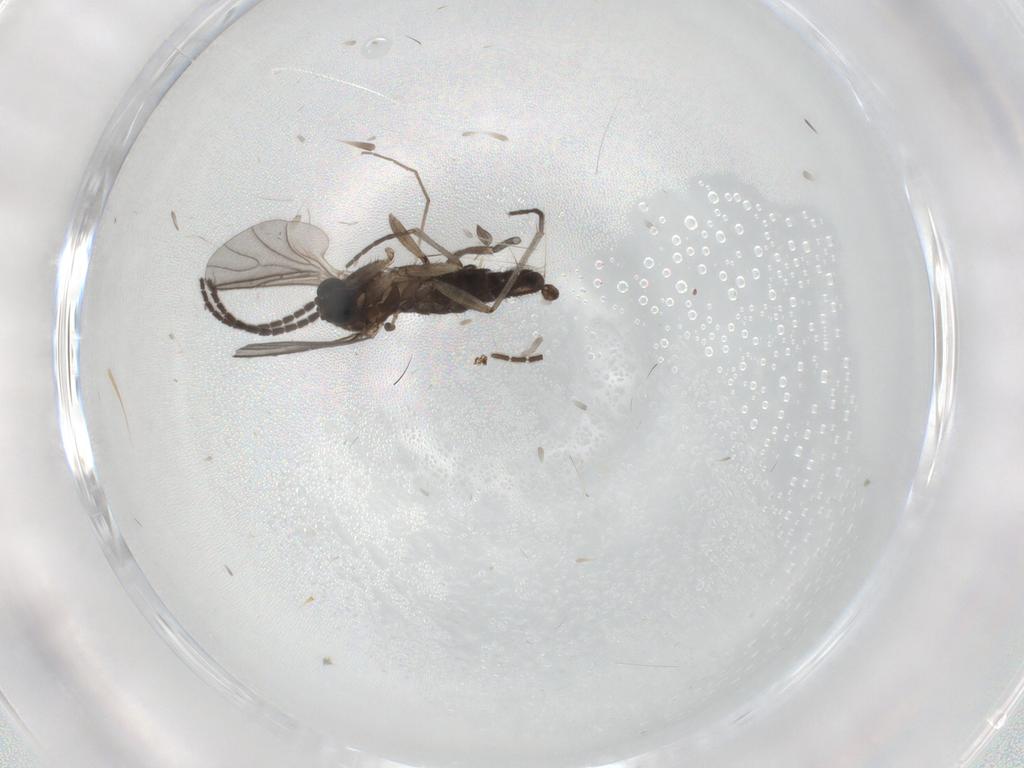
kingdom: Animalia
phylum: Arthropoda
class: Insecta
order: Diptera
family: Sciaridae
